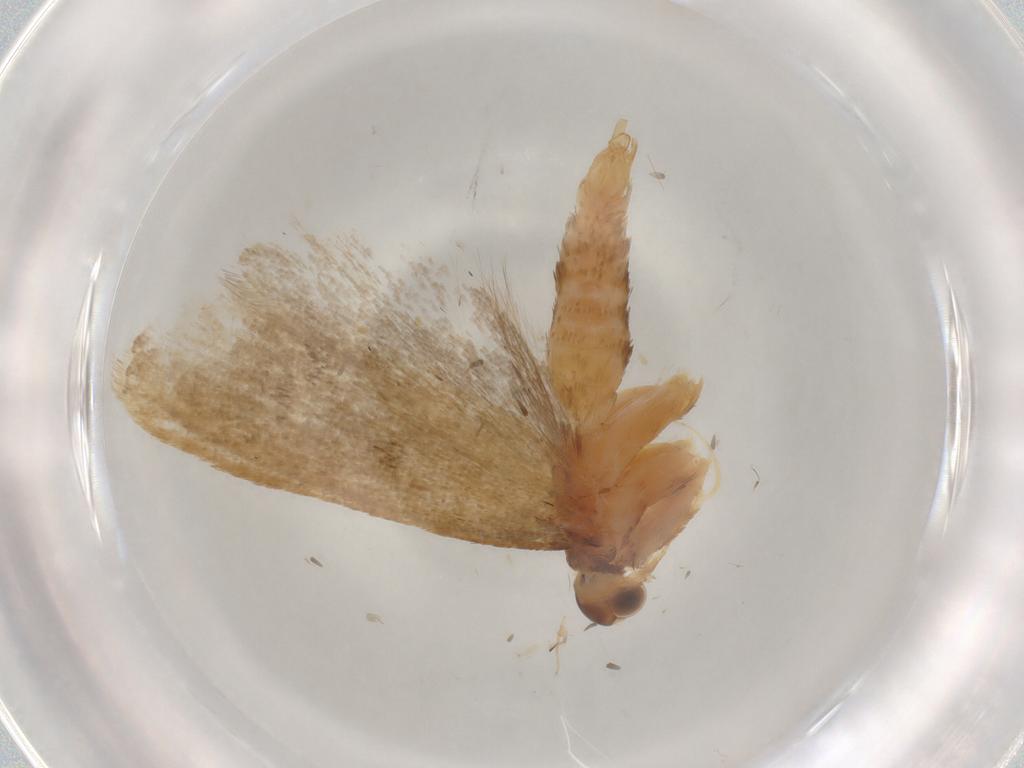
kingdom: Animalia
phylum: Arthropoda
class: Insecta
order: Lepidoptera
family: Lecithoceridae
